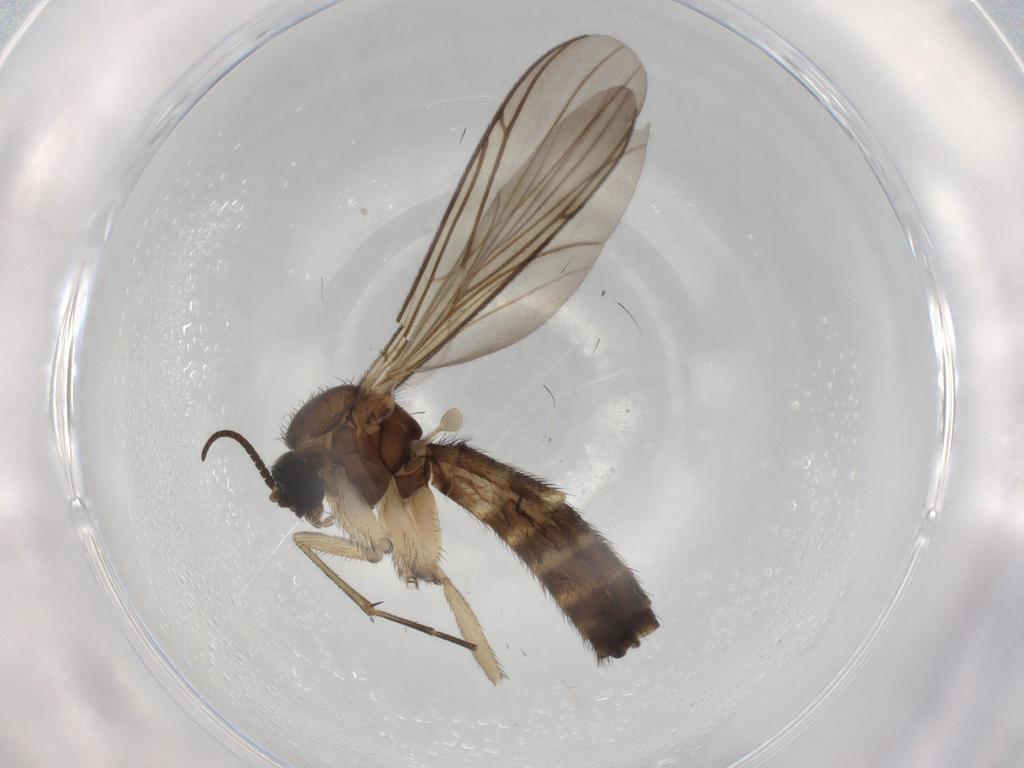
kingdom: Animalia
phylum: Arthropoda
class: Insecta
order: Diptera
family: Keroplatidae
